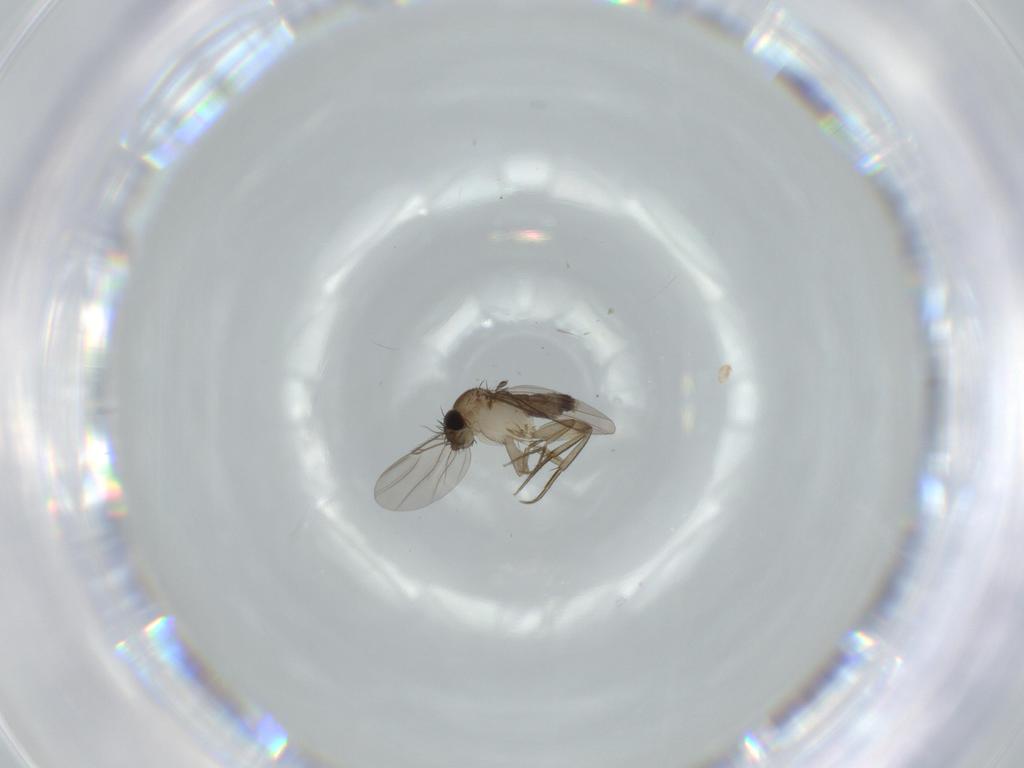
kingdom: Animalia
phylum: Arthropoda
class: Insecta
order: Diptera
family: Phoridae
